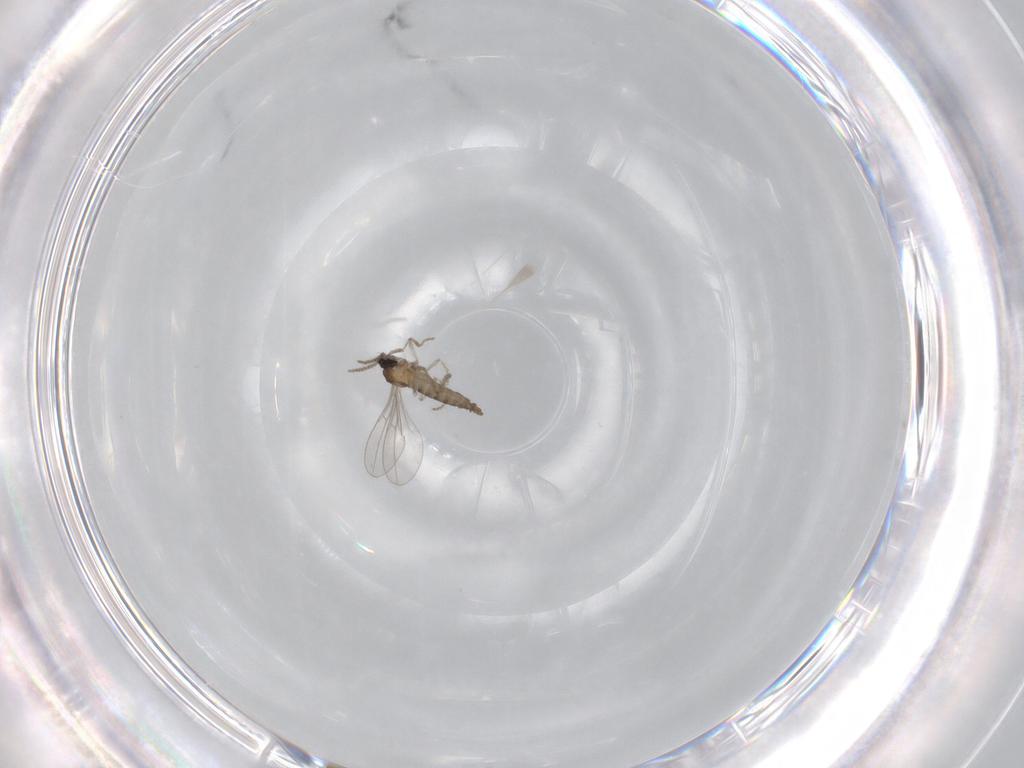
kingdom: Animalia
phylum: Arthropoda
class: Insecta
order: Diptera
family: Cecidomyiidae
